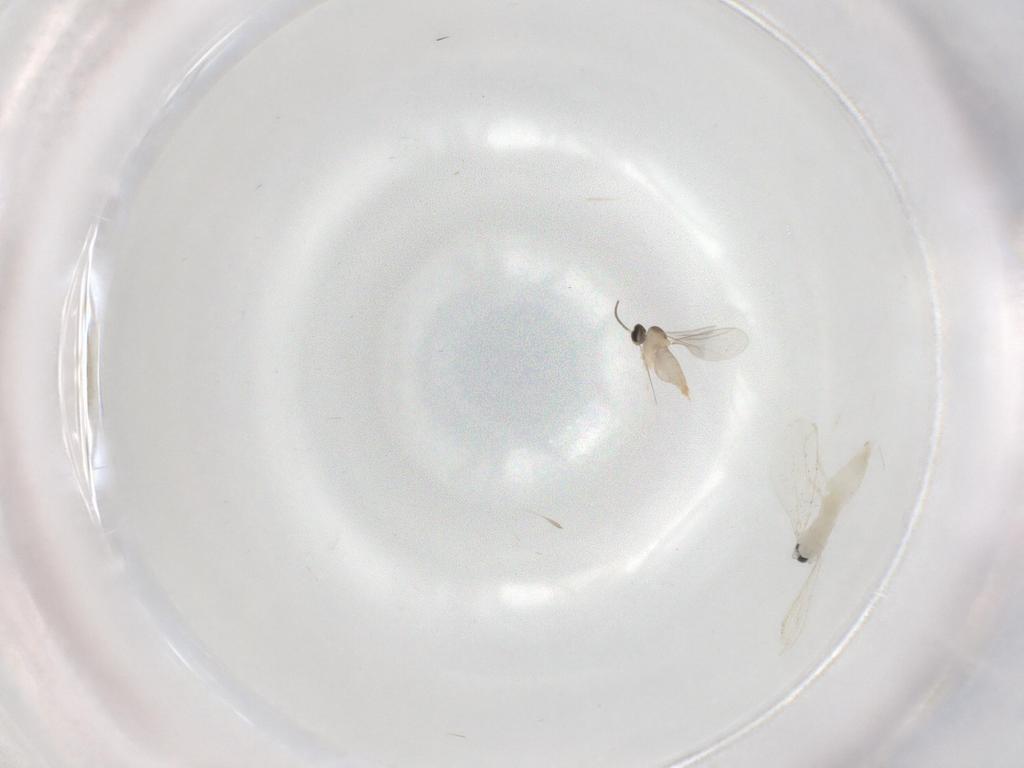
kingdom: Animalia
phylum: Arthropoda
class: Insecta
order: Diptera
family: Cecidomyiidae
